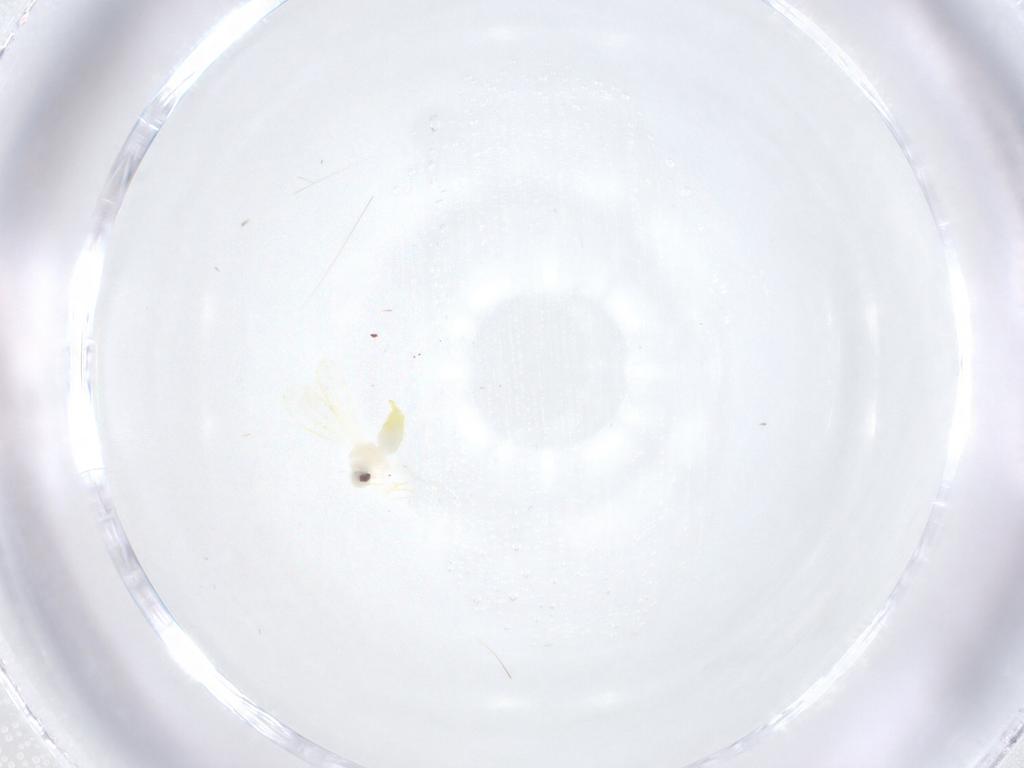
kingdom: Animalia
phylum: Arthropoda
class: Insecta
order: Hemiptera
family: Aleyrodidae
